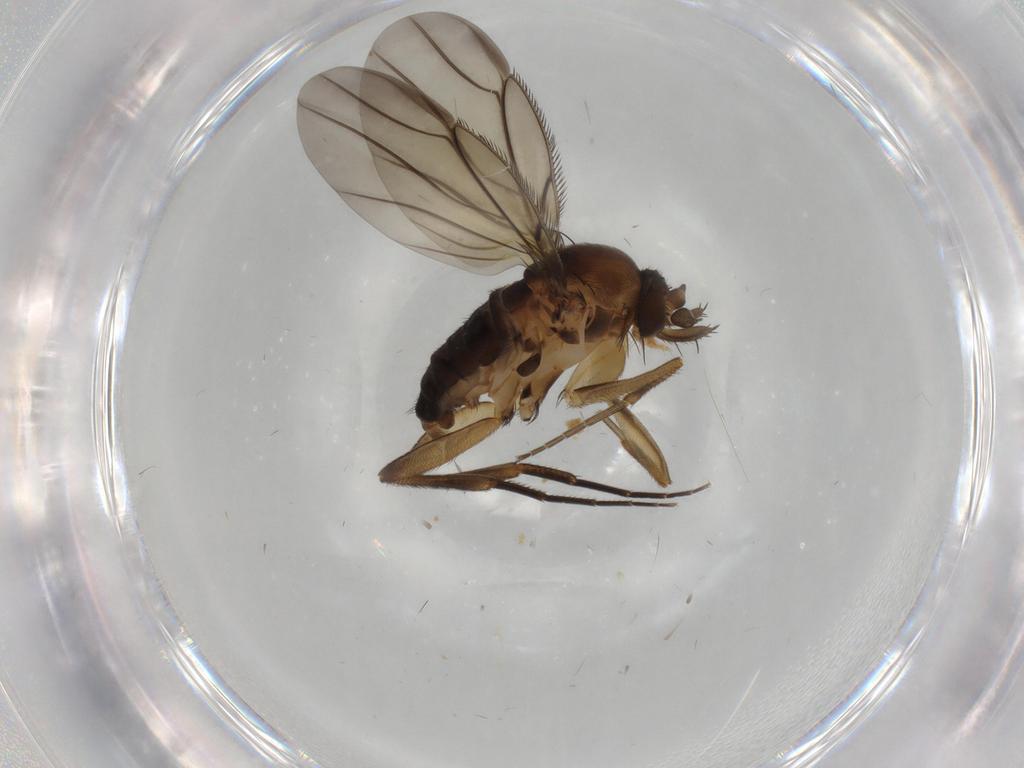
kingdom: Animalia
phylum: Arthropoda
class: Insecta
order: Diptera
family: Phoridae
